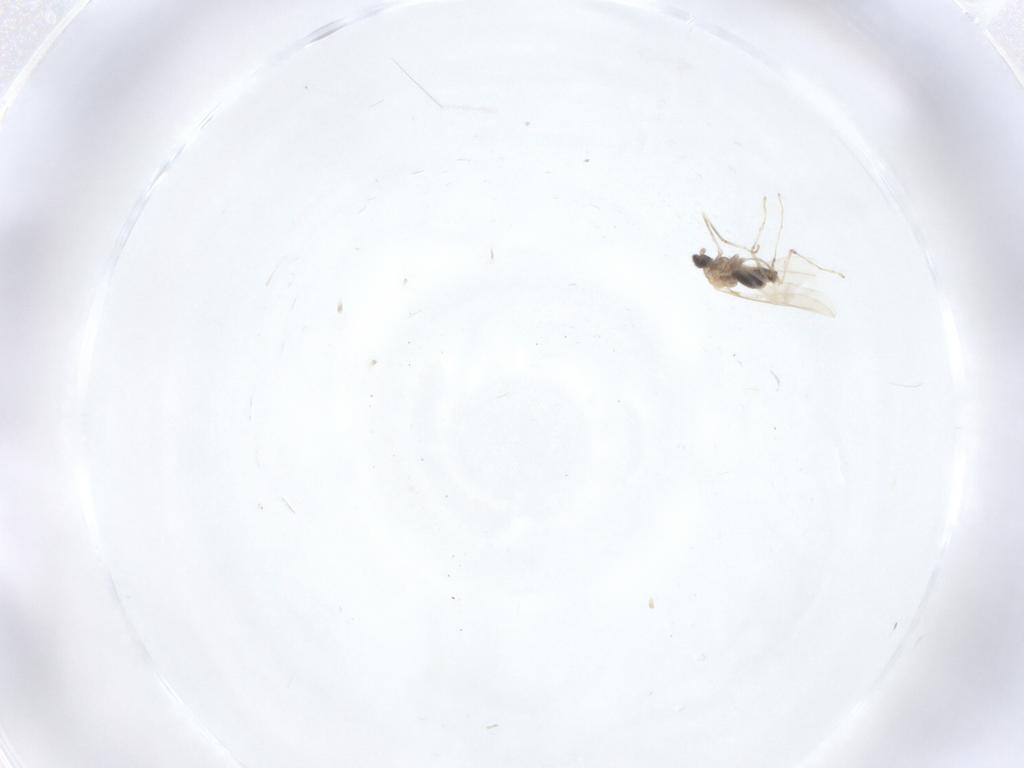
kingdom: Animalia
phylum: Arthropoda
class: Insecta
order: Diptera
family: Cecidomyiidae
